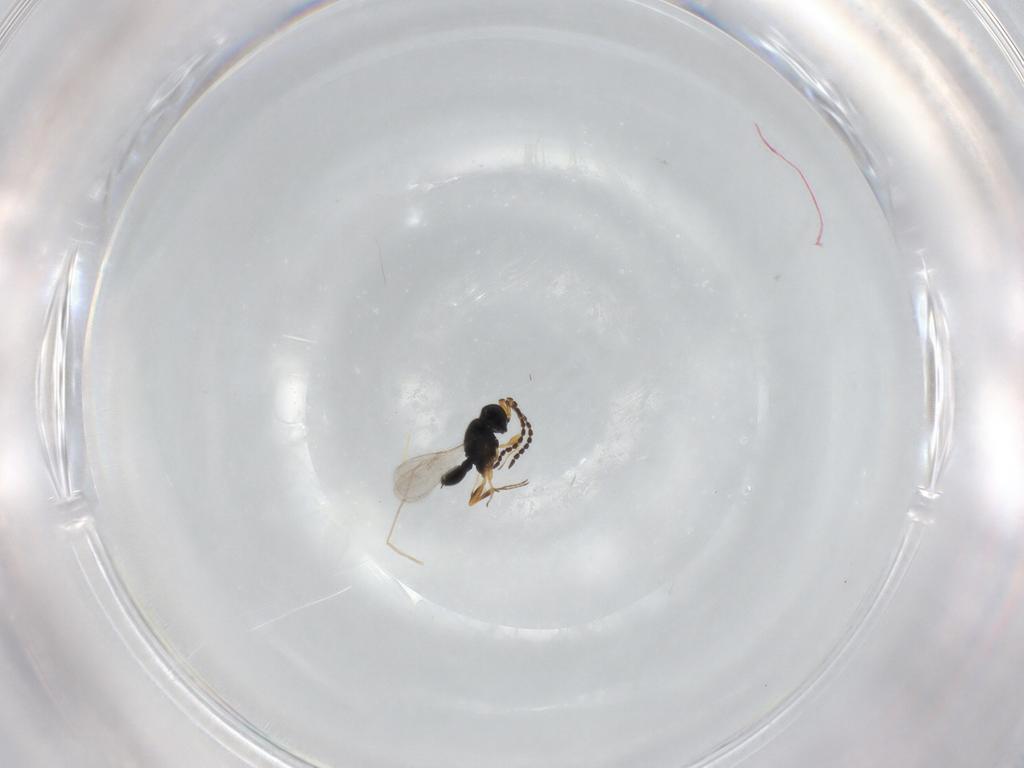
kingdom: Animalia
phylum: Arthropoda
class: Insecta
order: Hymenoptera
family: Scelionidae
